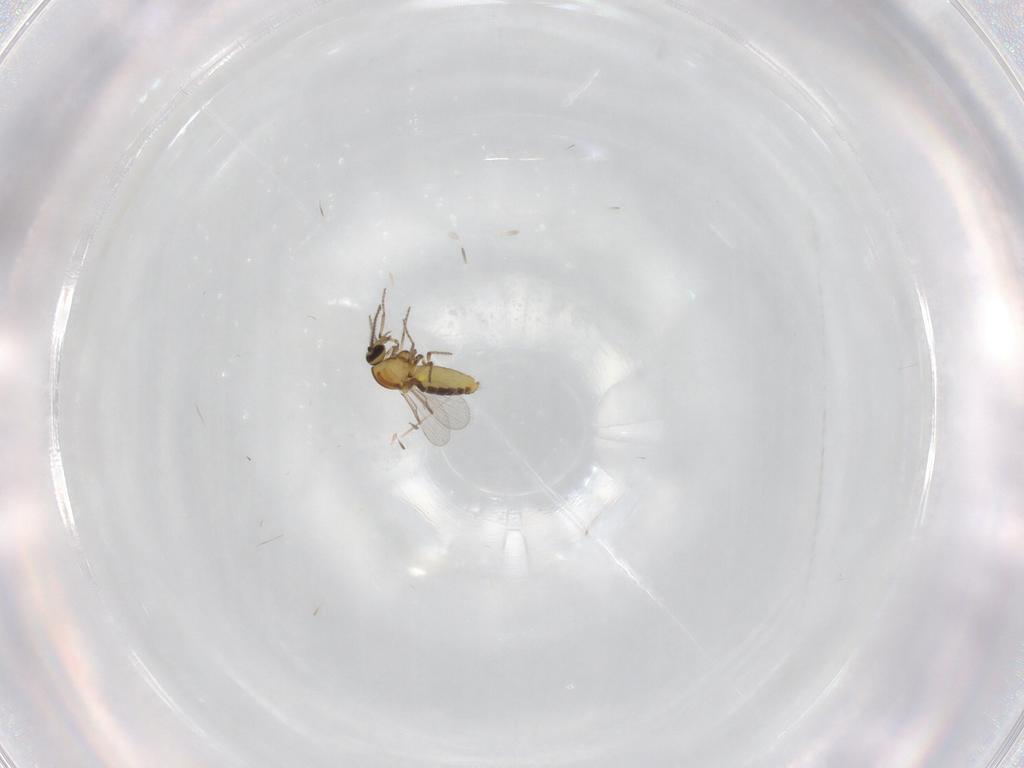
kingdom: Animalia
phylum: Arthropoda
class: Insecta
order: Diptera
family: Ceratopogonidae
